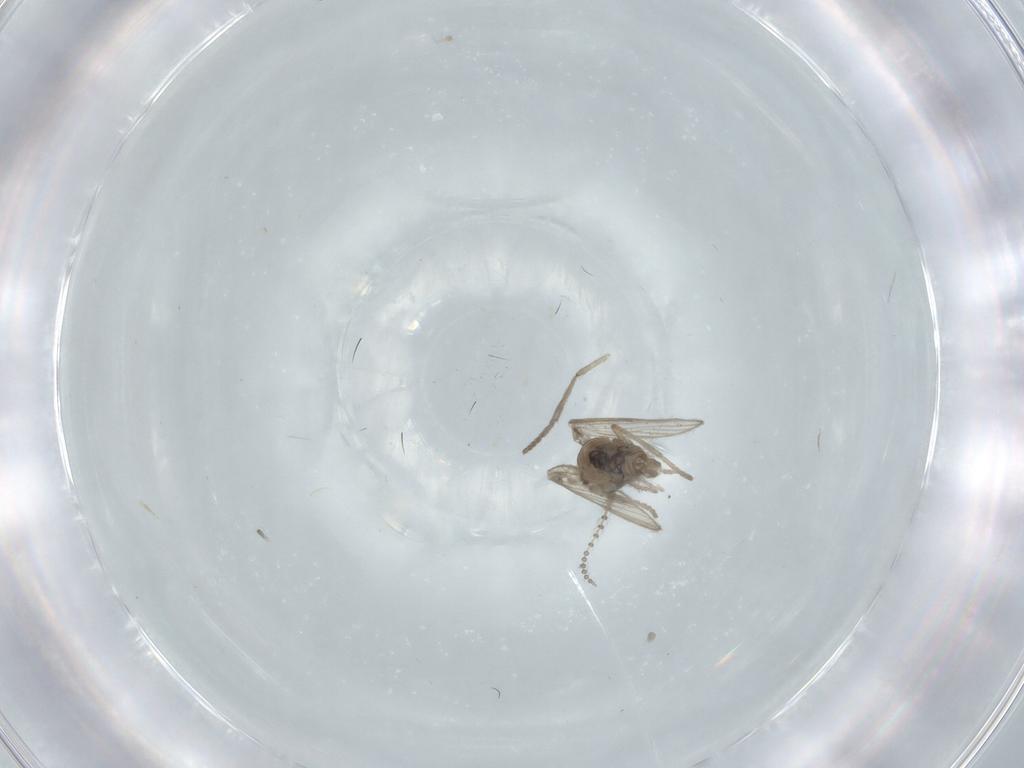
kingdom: Animalia
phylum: Arthropoda
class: Insecta
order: Diptera
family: Psychodidae
